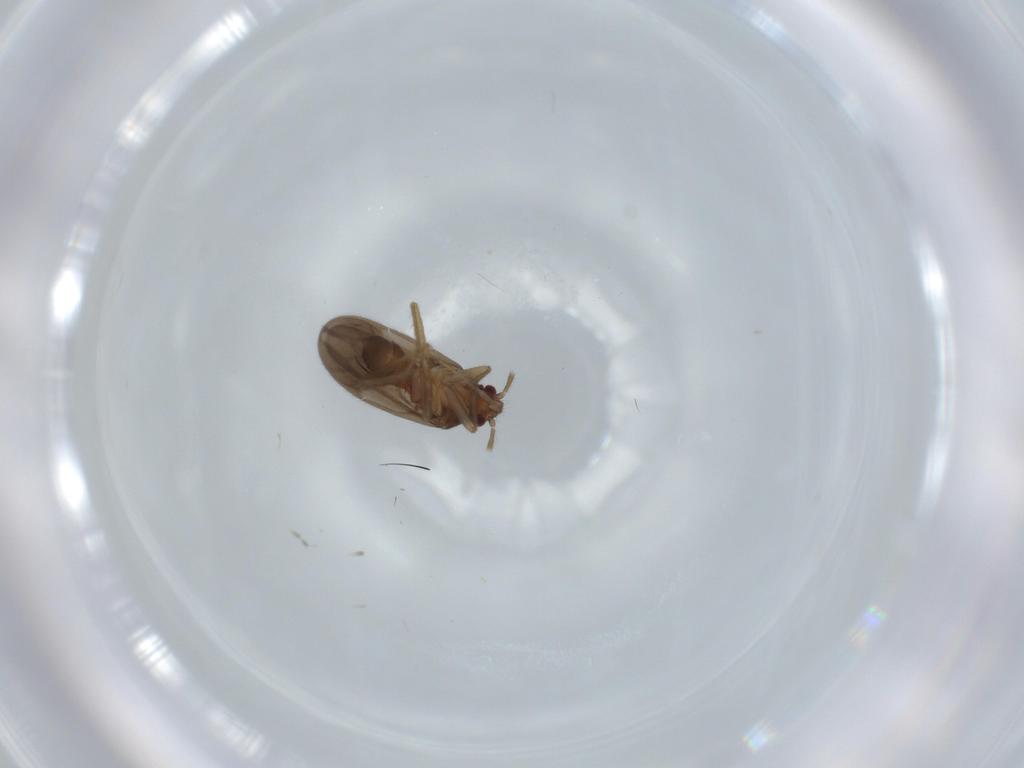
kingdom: Animalia
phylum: Arthropoda
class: Insecta
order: Hemiptera
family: Ceratocombidae
